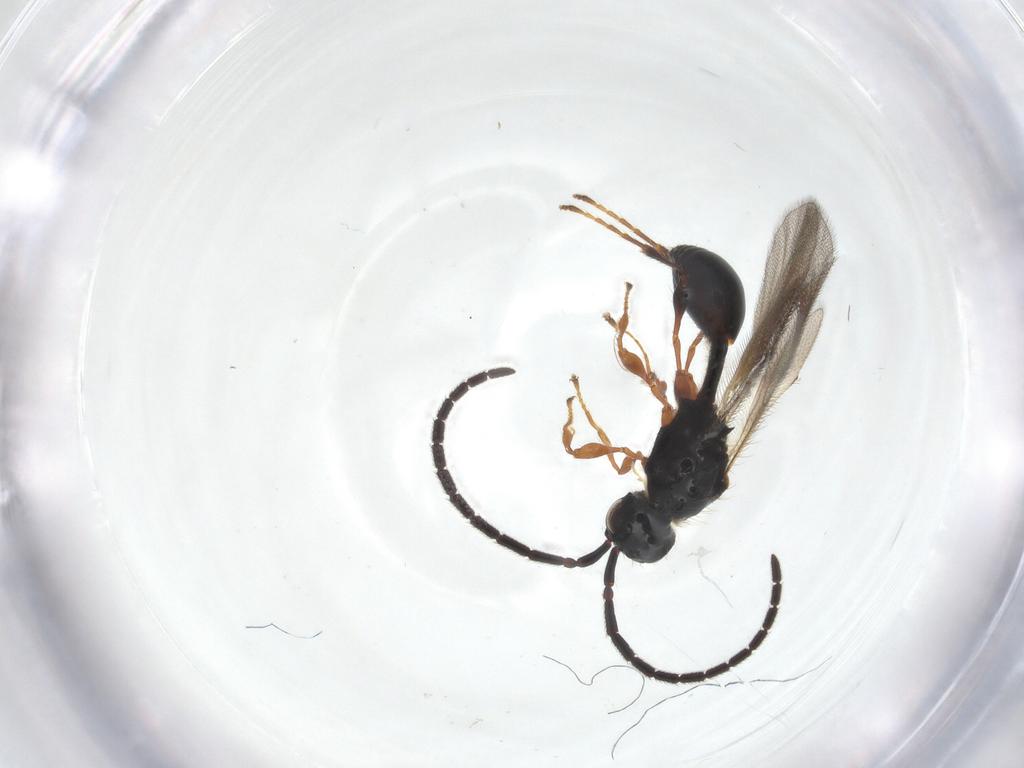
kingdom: Animalia
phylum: Arthropoda
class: Insecta
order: Hymenoptera
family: Diapriidae
